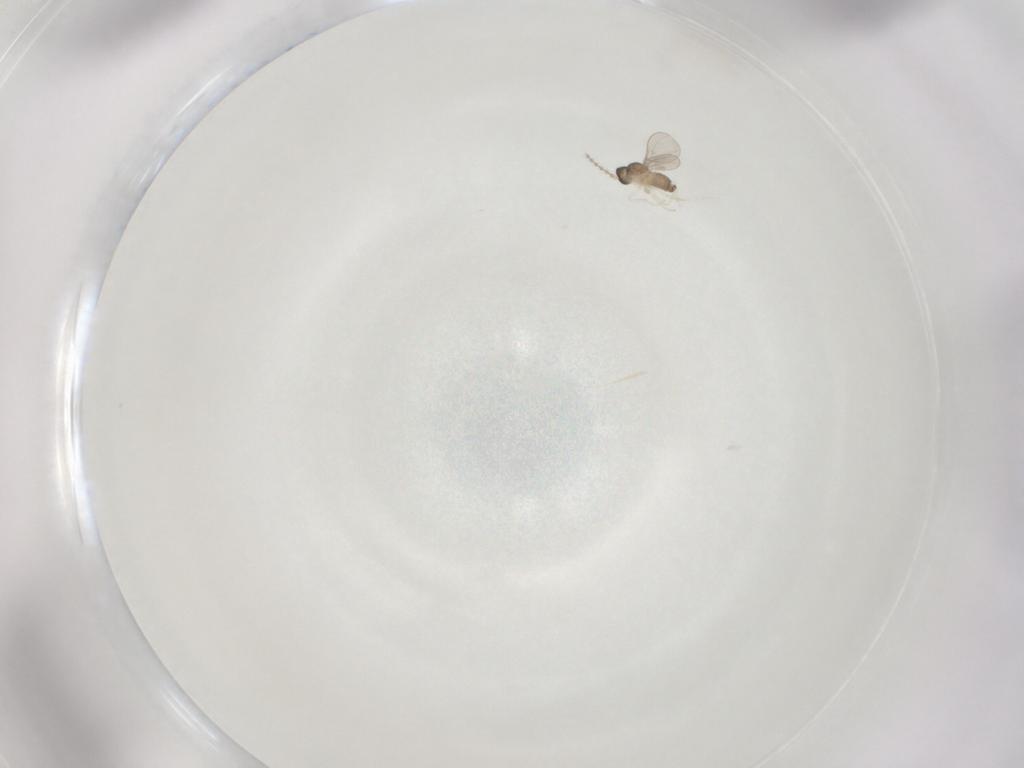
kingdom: Animalia
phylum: Arthropoda
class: Insecta
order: Diptera
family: Cecidomyiidae
